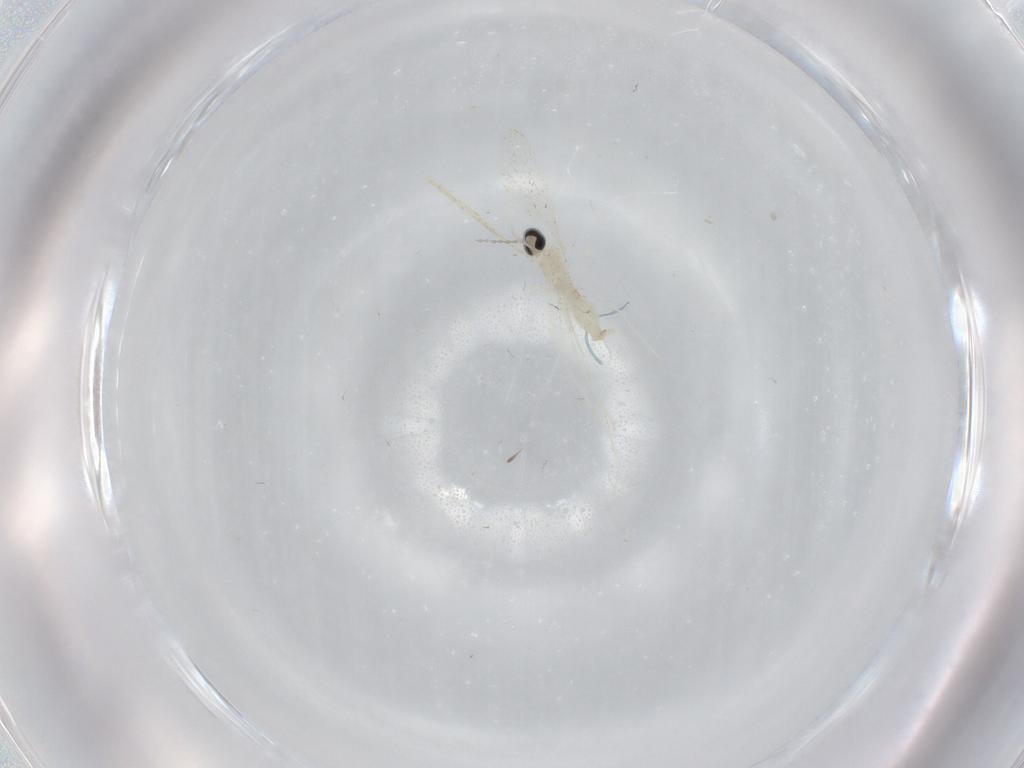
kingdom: Animalia
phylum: Arthropoda
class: Insecta
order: Diptera
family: Cecidomyiidae
